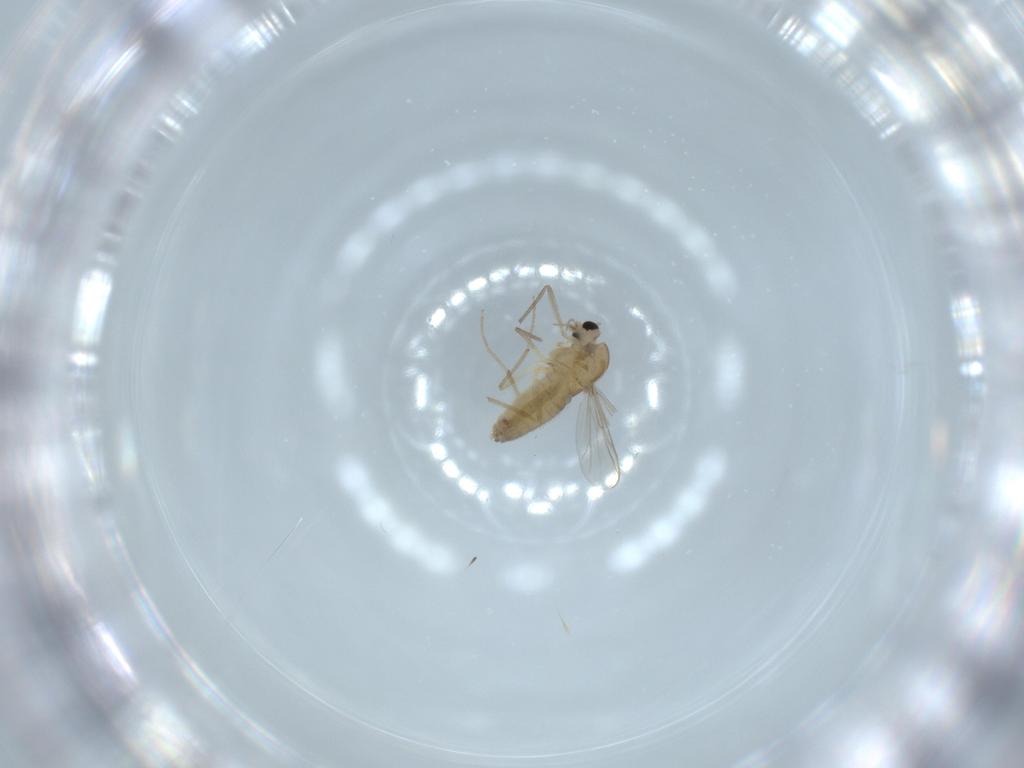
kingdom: Animalia
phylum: Arthropoda
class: Insecta
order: Diptera
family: Chironomidae
